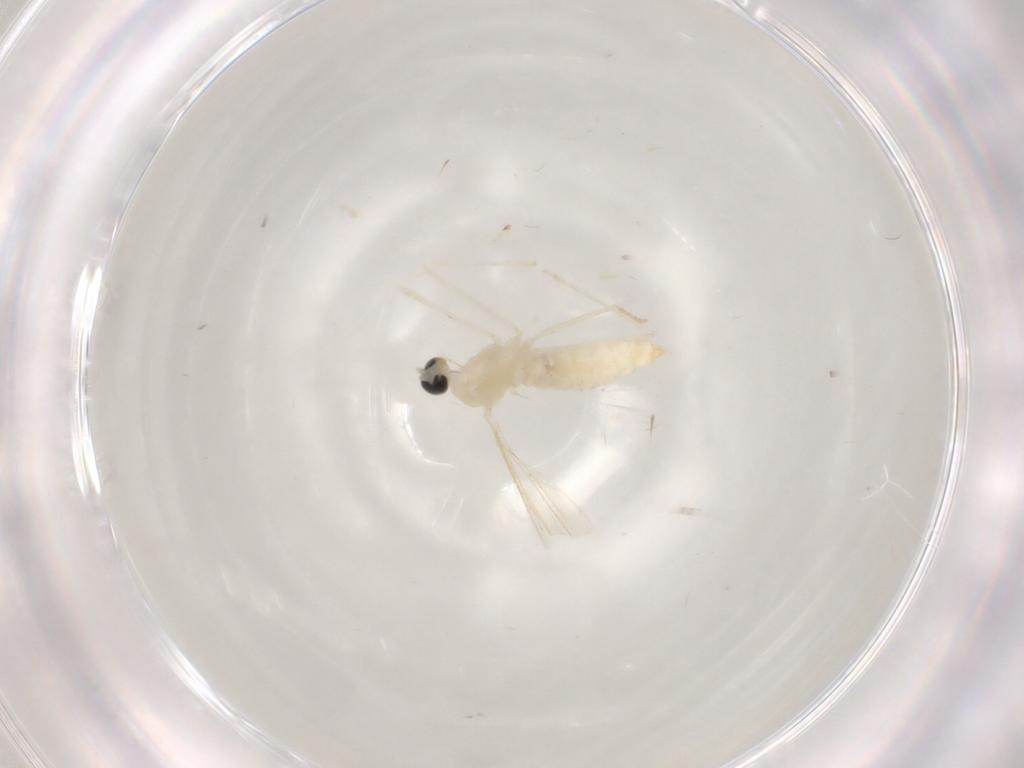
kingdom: Animalia
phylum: Arthropoda
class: Insecta
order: Diptera
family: Cecidomyiidae
